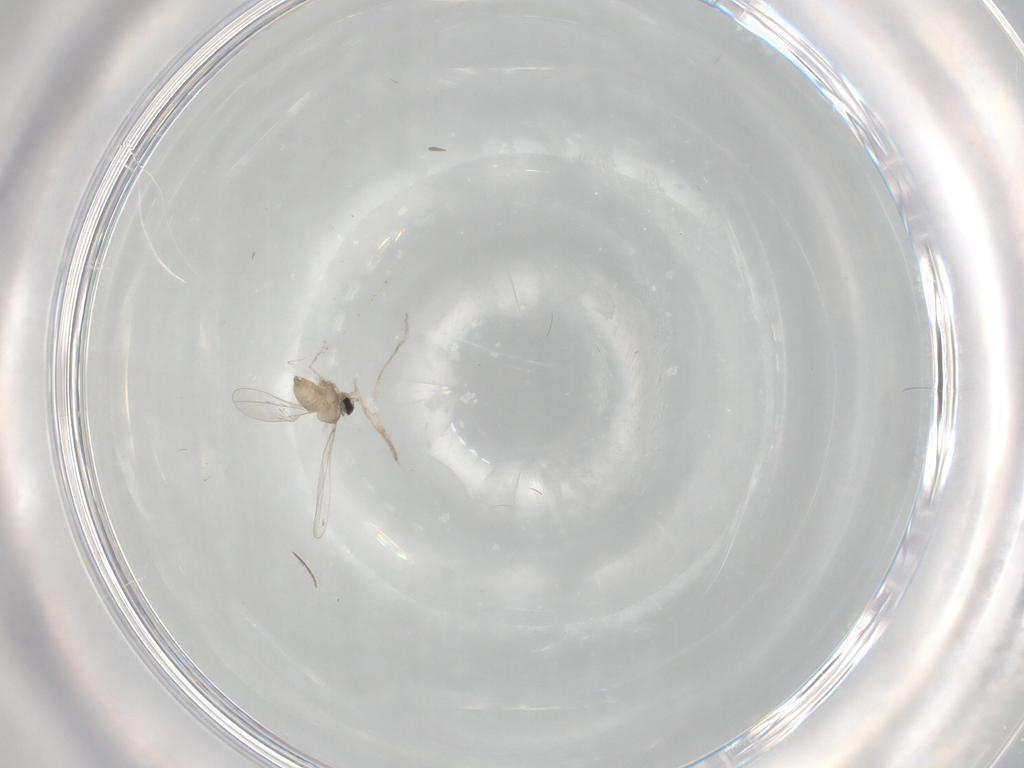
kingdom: Animalia
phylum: Arthropoda
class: Insecta
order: Diptera
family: Cecidomyiidae
